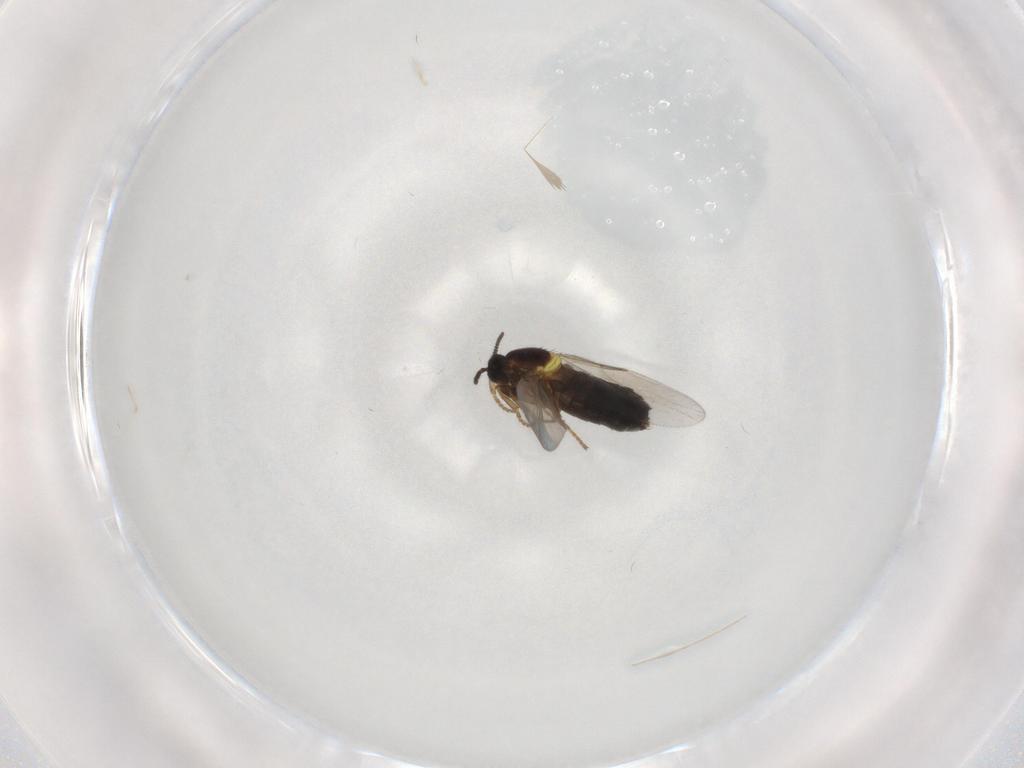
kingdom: Animalia
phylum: Arthropoda
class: Insecta
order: Diptera
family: Scatopsidae
